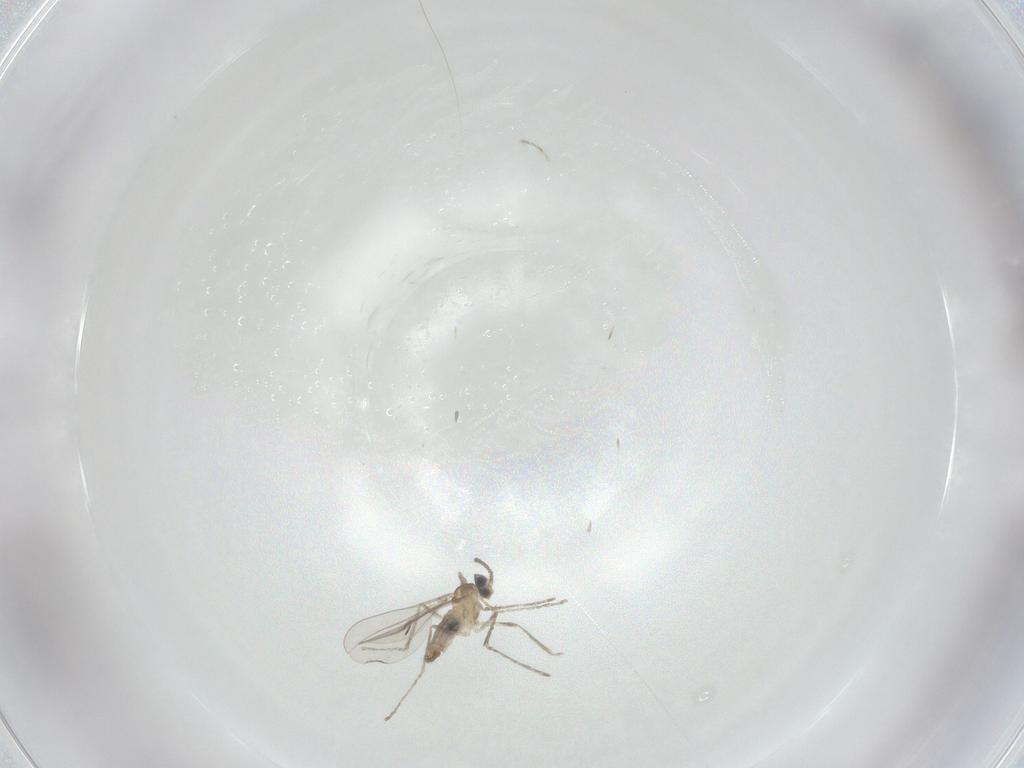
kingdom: Animalia
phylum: Arthropoda
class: Insecta
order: Diptera
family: Cecidomyiidae
